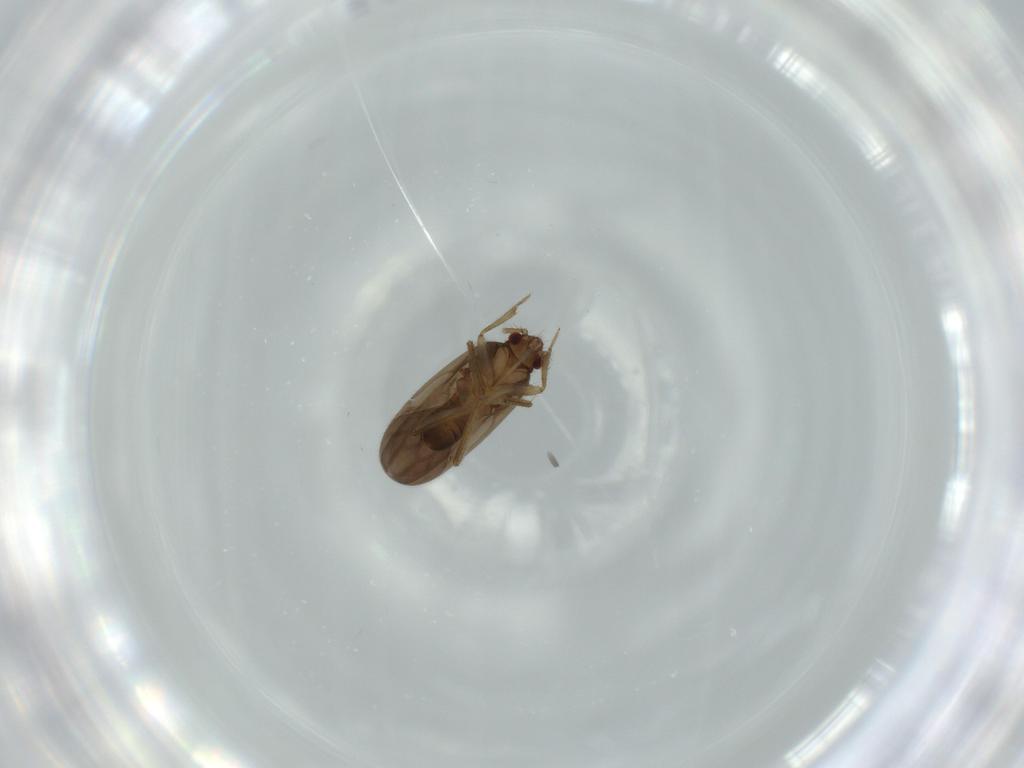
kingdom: Animalia
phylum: Arthropoda
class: Insecta
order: Hemiptera
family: Ceratocombidae
